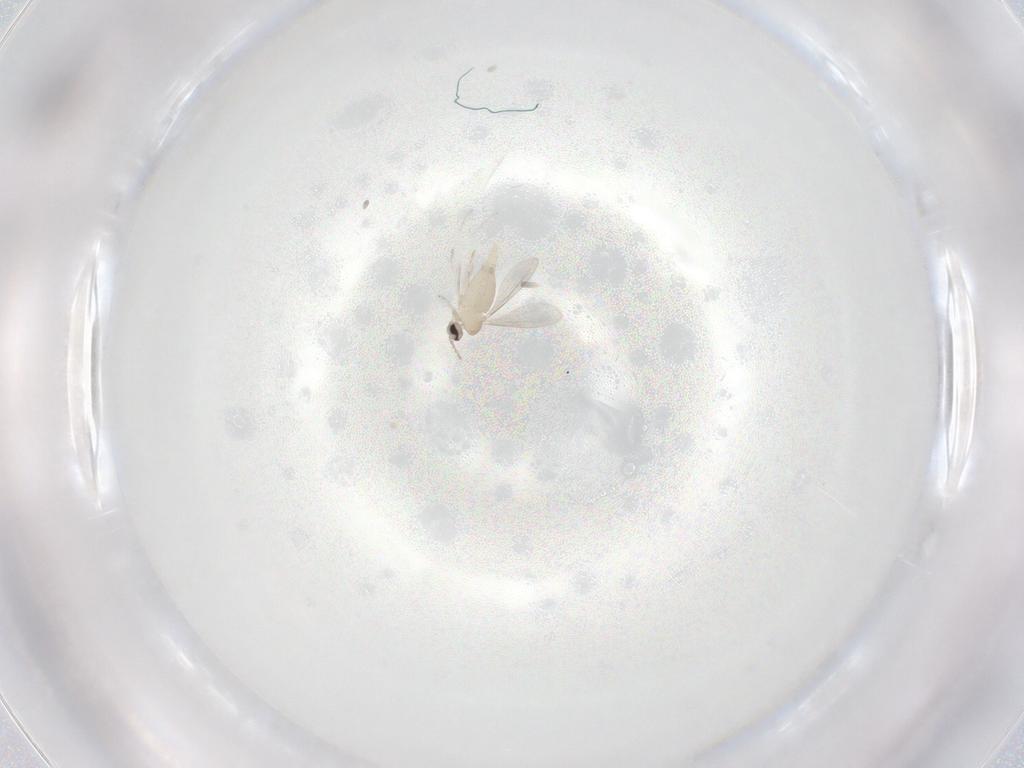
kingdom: Animalia
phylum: Arthropoda
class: Insecta
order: Diptera
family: Cecidomyiidae
